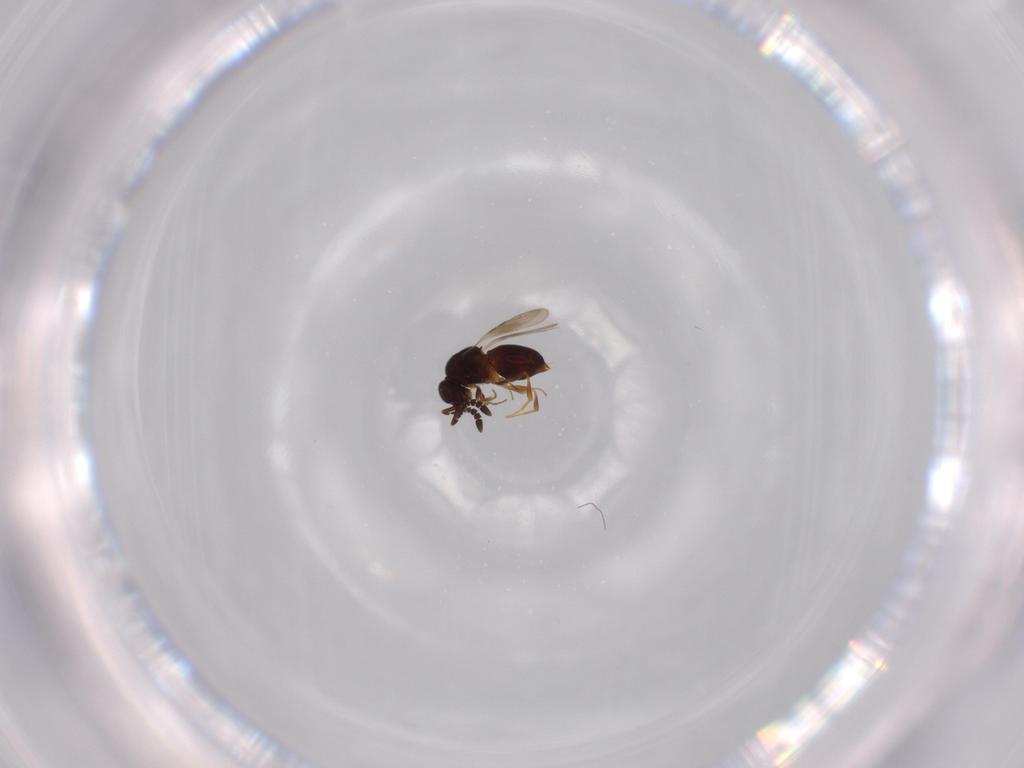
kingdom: Animalia
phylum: Arthropoda
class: Insecta
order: Hymenoptera
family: Ceraphronidae
